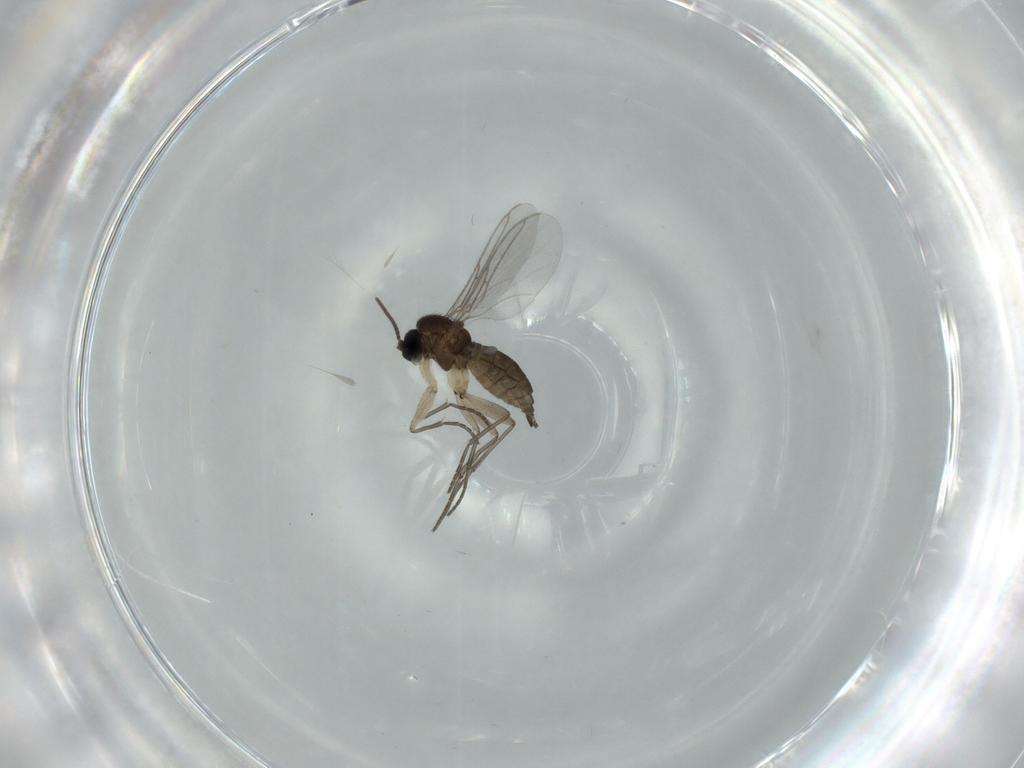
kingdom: Animalia
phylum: Arthropoda
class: Insecta
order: Diptera
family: Sciaridae
